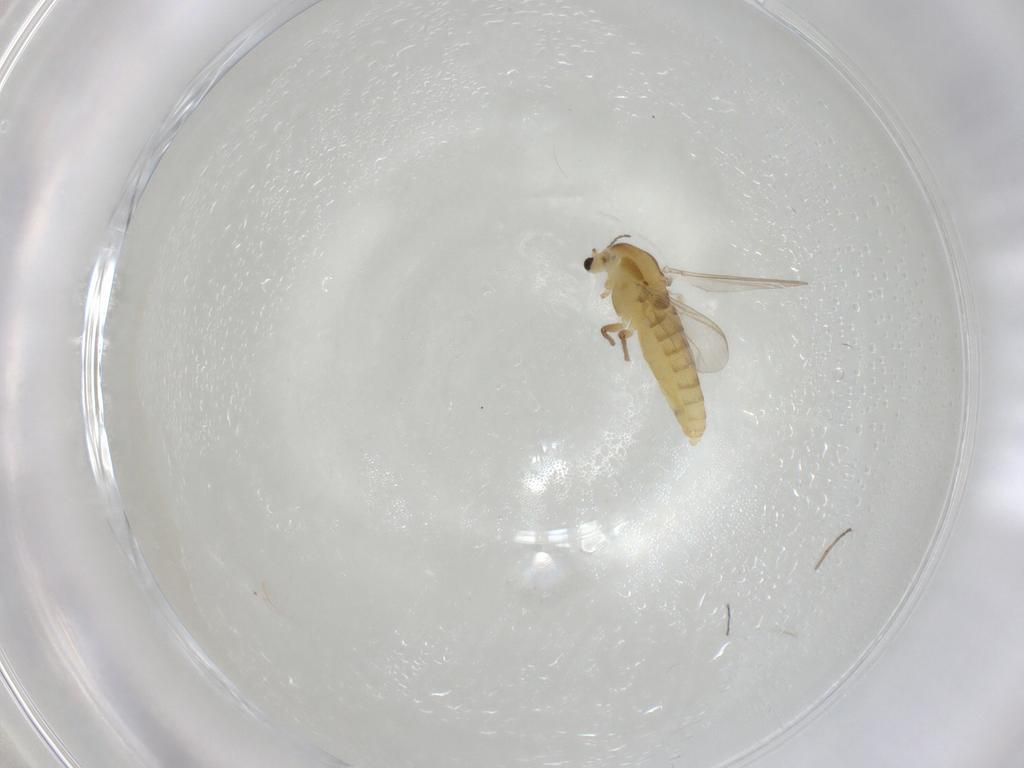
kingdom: Animalia
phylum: Arthropoda
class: Insecta
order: Diptera
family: Chironomidae
